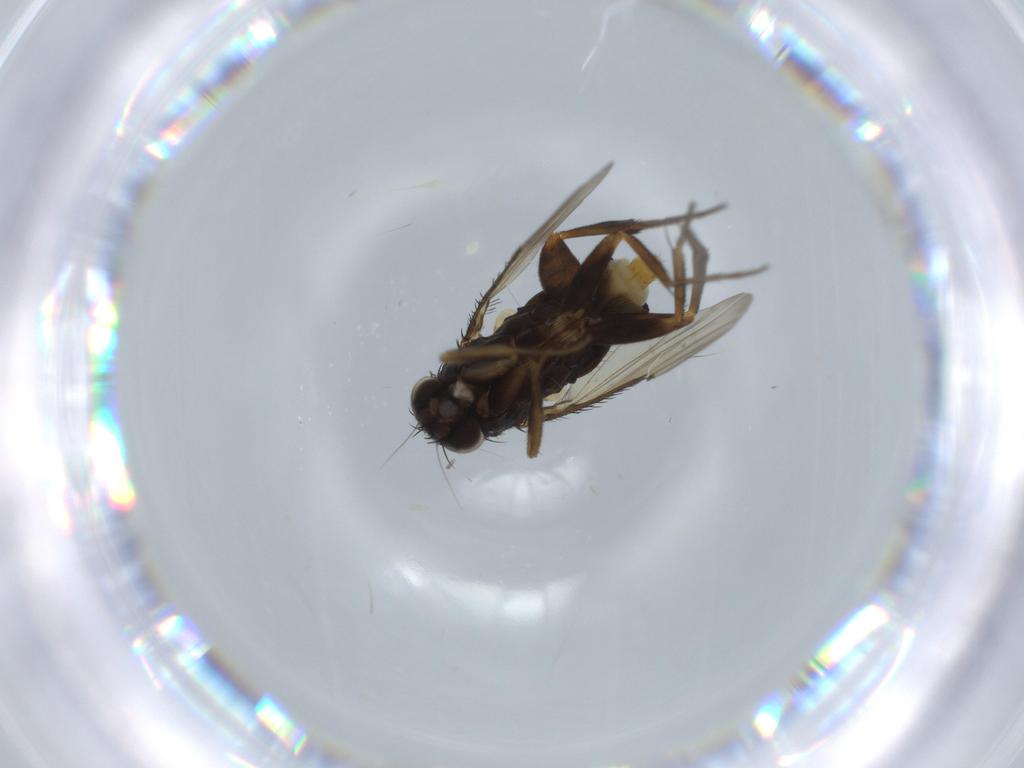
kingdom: Animalia
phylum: Arthropoda
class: Insecta
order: Diptera
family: Phoridae
